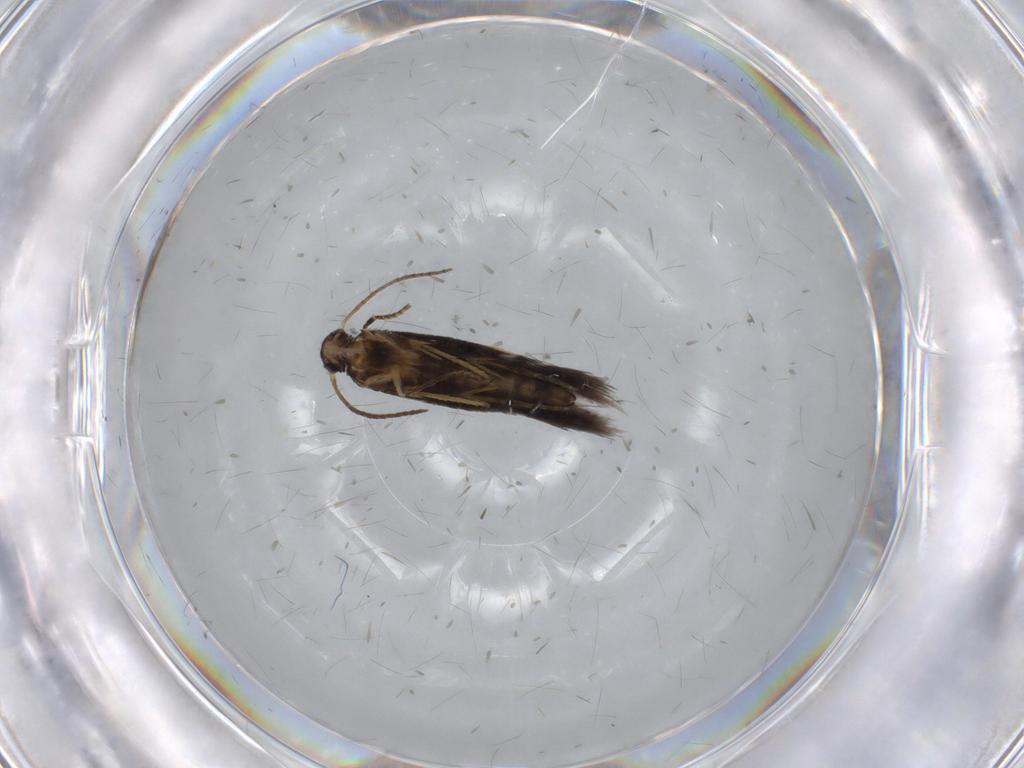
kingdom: Animalia
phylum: Arthropoda
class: Insecta
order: Lepidoptera
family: Heliozelidae
